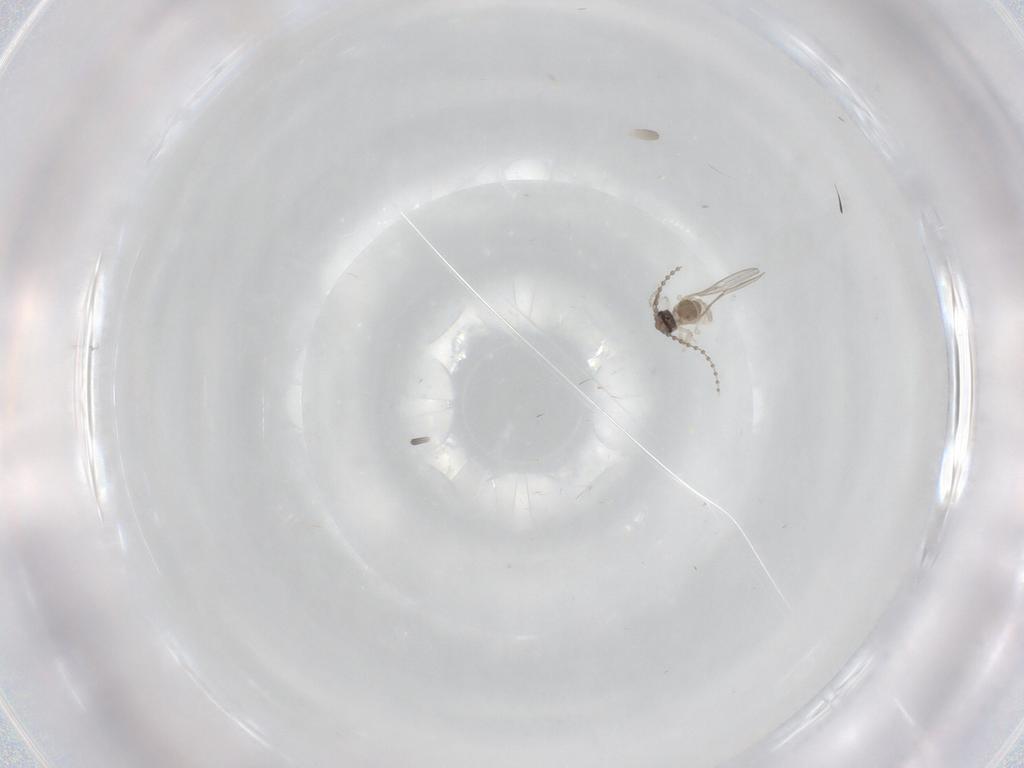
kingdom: Animalia
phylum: Arthropoda
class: Insecta
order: Diptera
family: Cecidomyiidae
